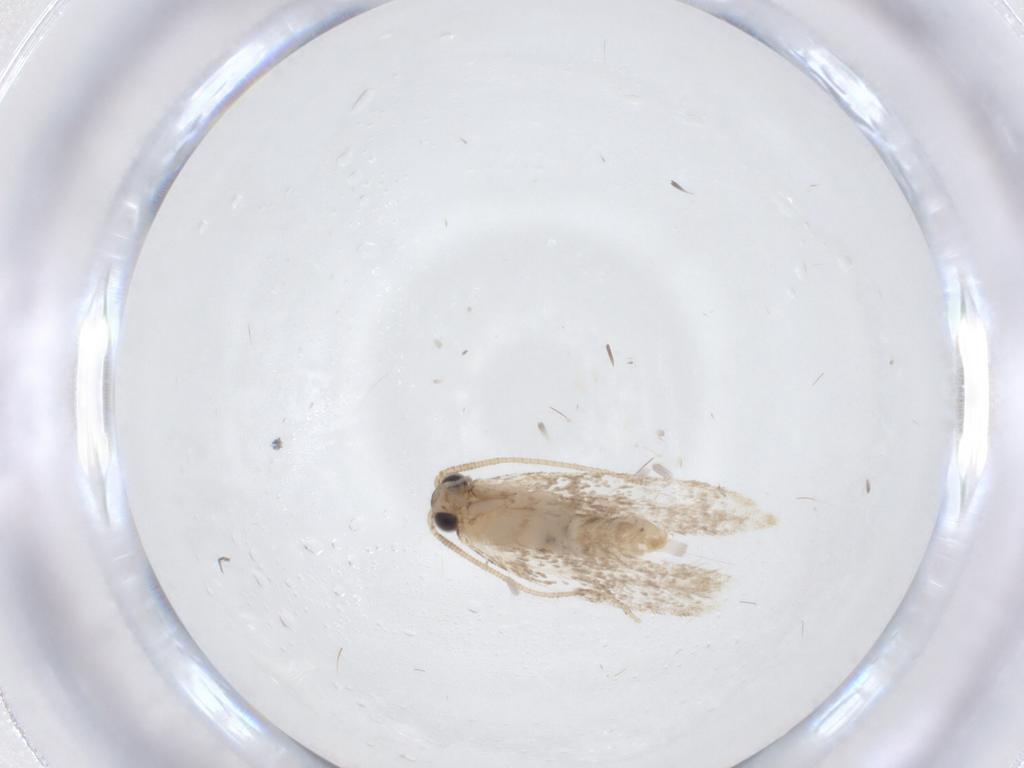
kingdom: Animalia
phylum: Arthropoda
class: Insecta
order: Lepidoptera
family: Dryadaulidae
